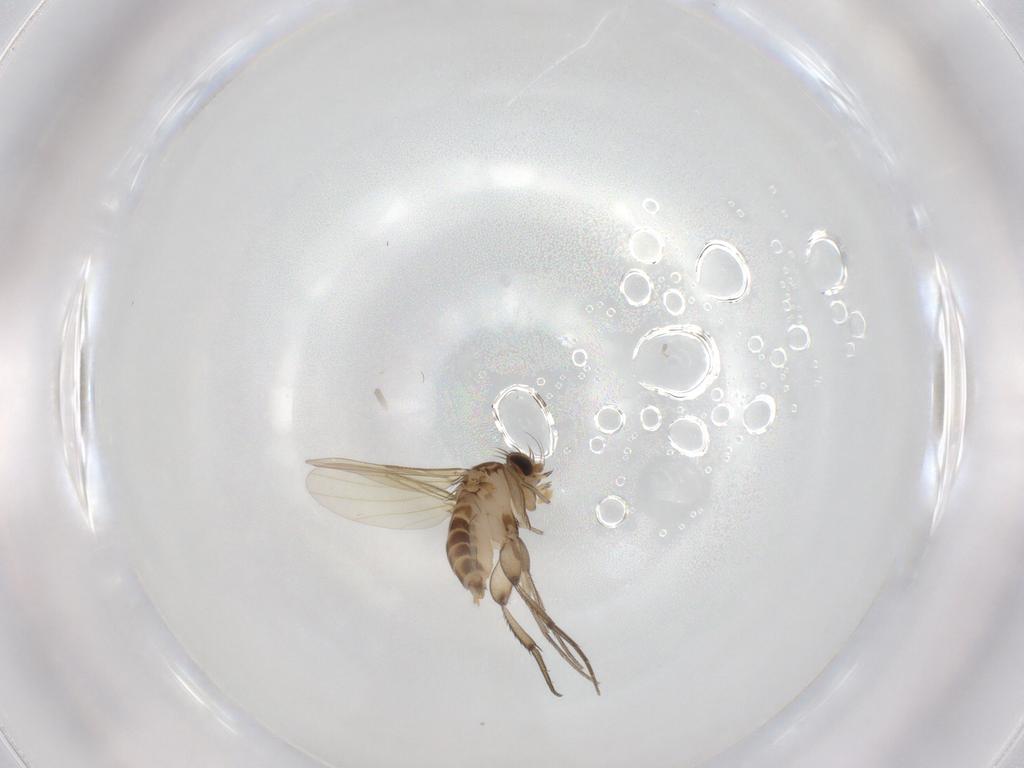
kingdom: Animalia
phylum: Arthropoda
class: Insecta
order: Diptera
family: Phoridae
